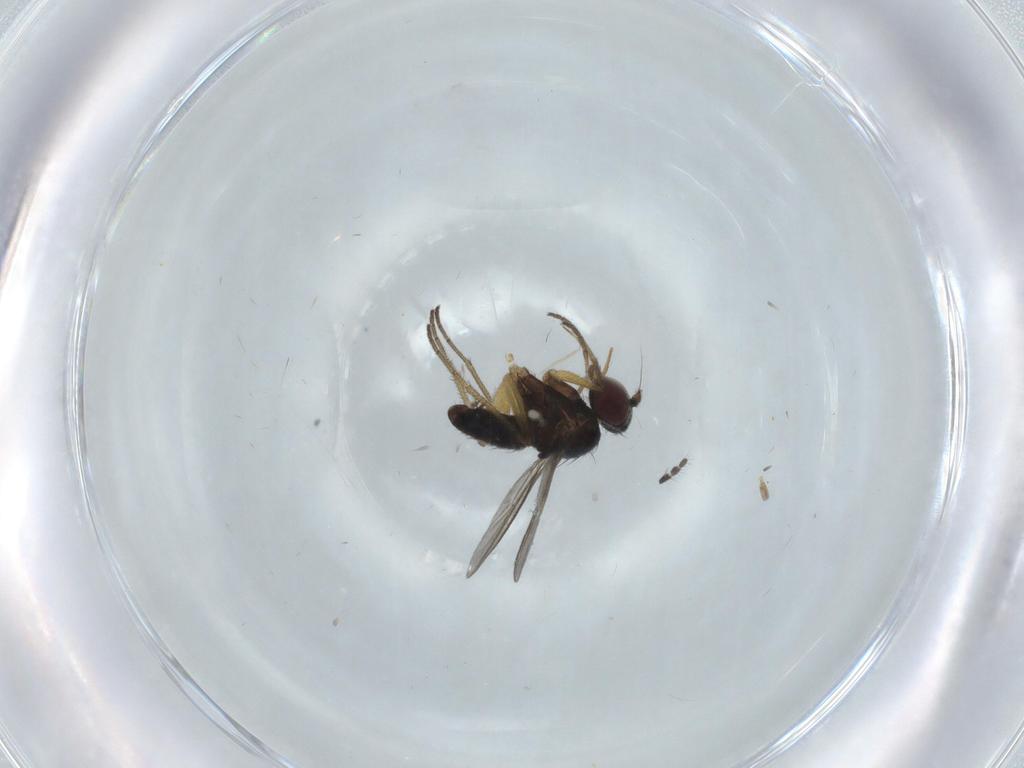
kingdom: Animalia
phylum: Arthropoda
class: Insecta
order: Diptera
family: Dolichopodidae
